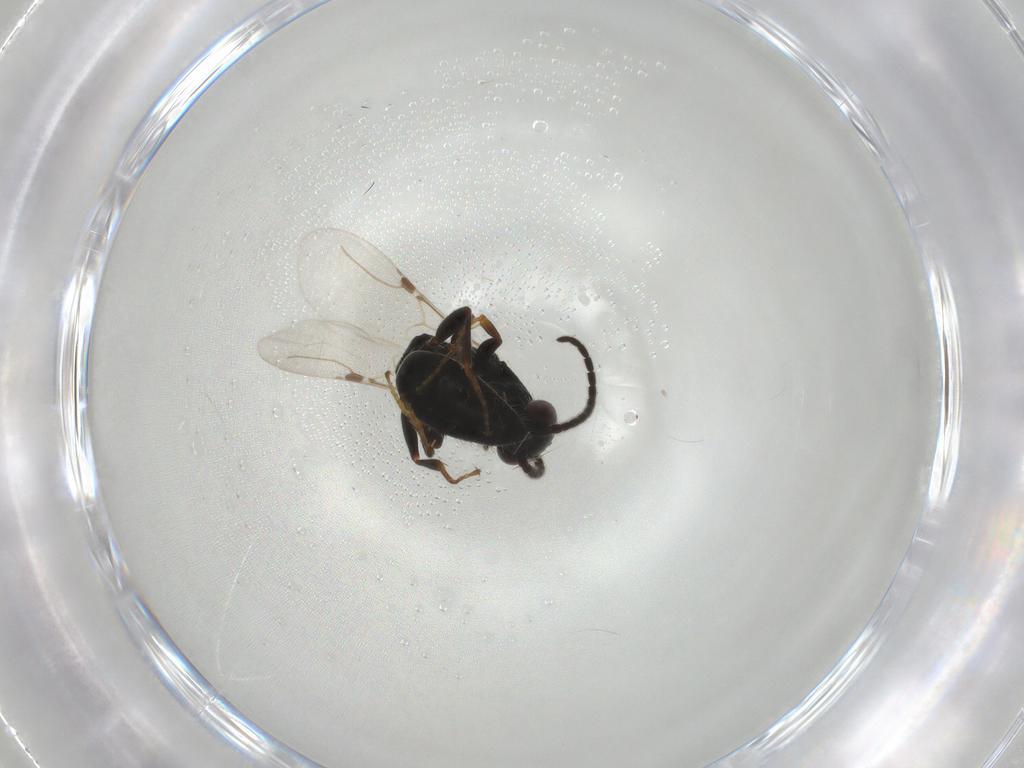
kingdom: Animalia
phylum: Arthropoda
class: Insecta
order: Hymenoptera
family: Bethylidae
